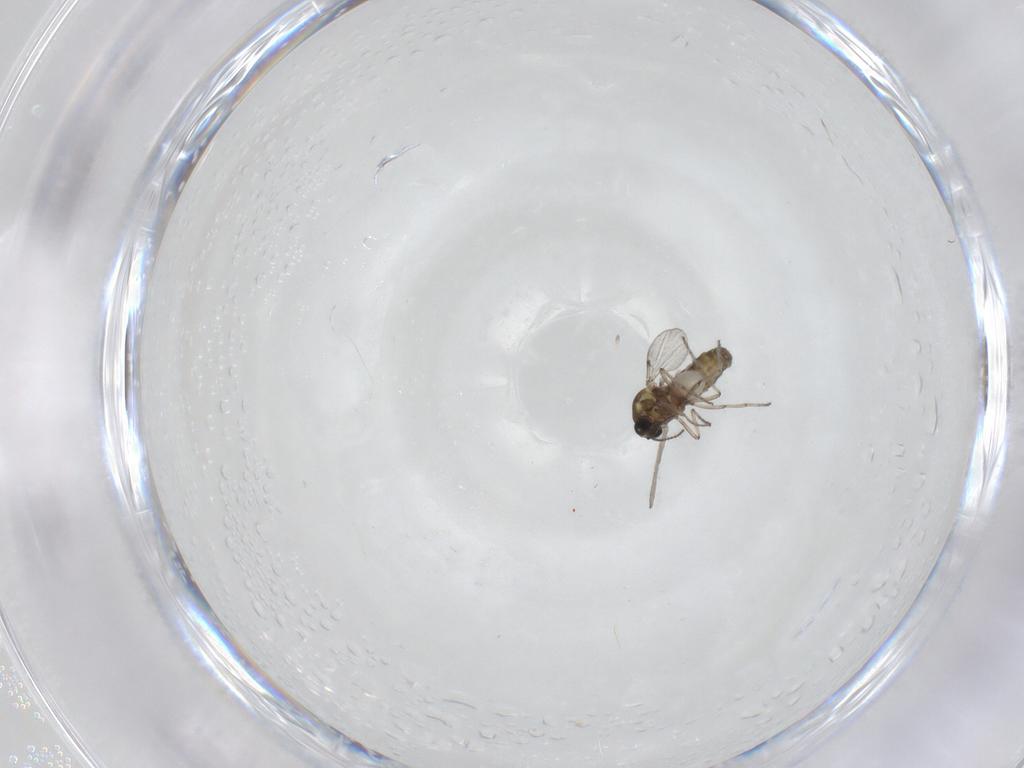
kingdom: Animalia
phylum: Arthropoda
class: Insecta
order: Diptera
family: Ceratopogonidae
